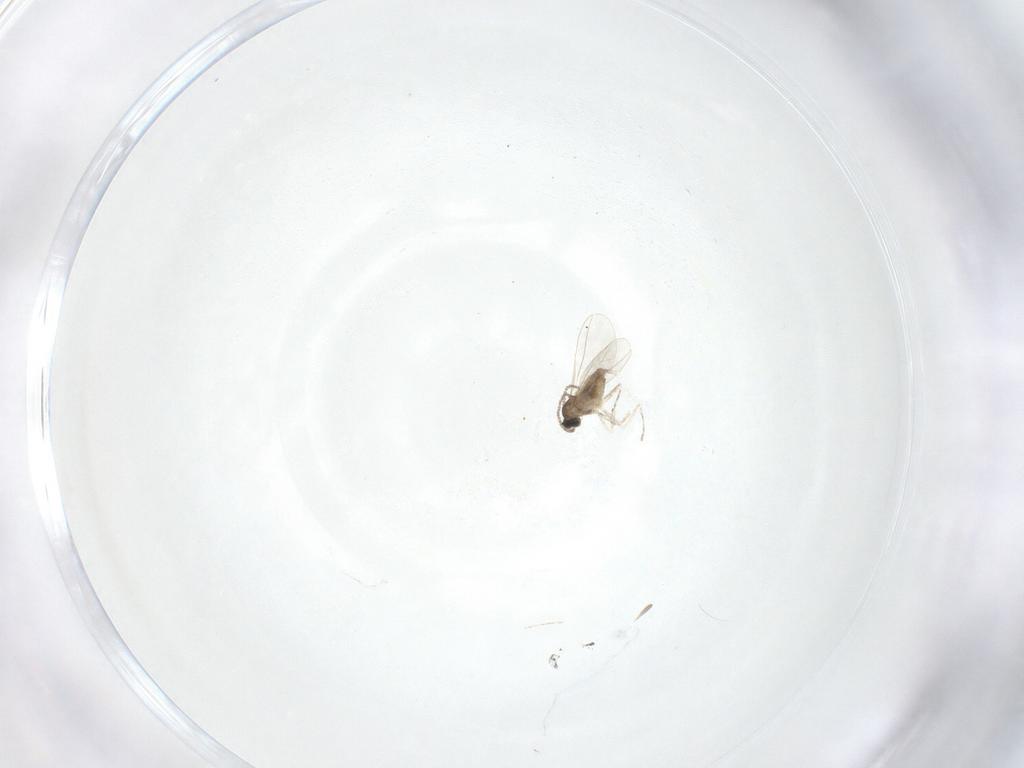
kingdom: Animalia
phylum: Arthropoda
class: Insecta
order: Diptera
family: Cecidomyiidae
